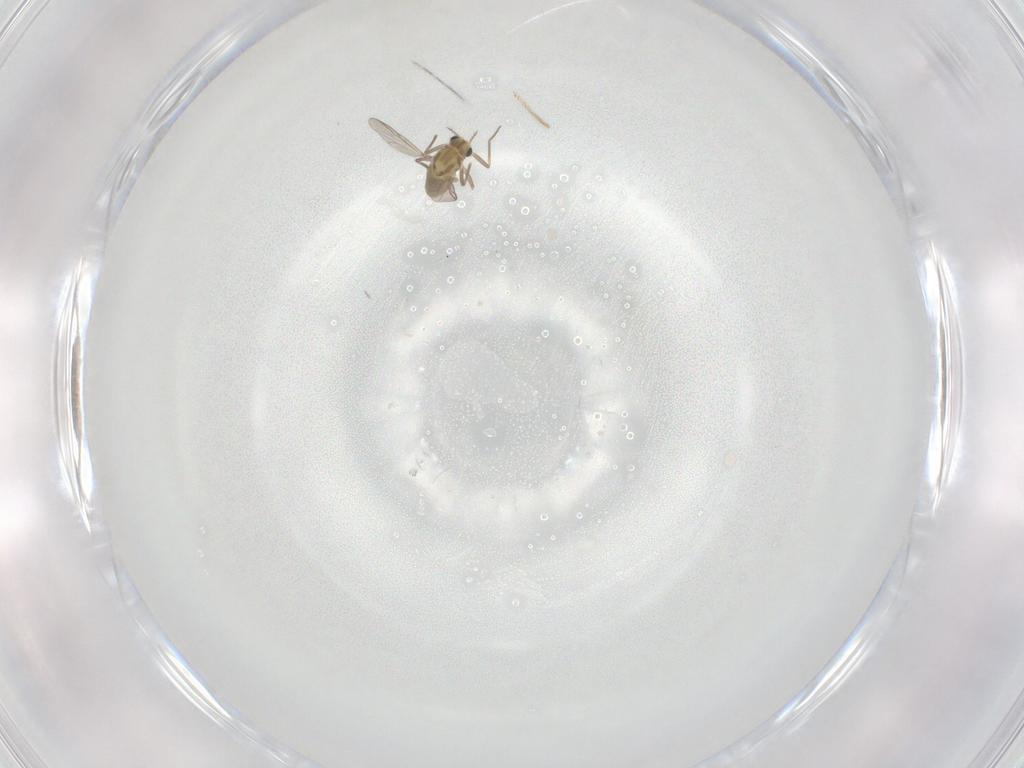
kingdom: Animalia
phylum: Arthropoda
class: Insecta
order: Diptera
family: Chironomidae
